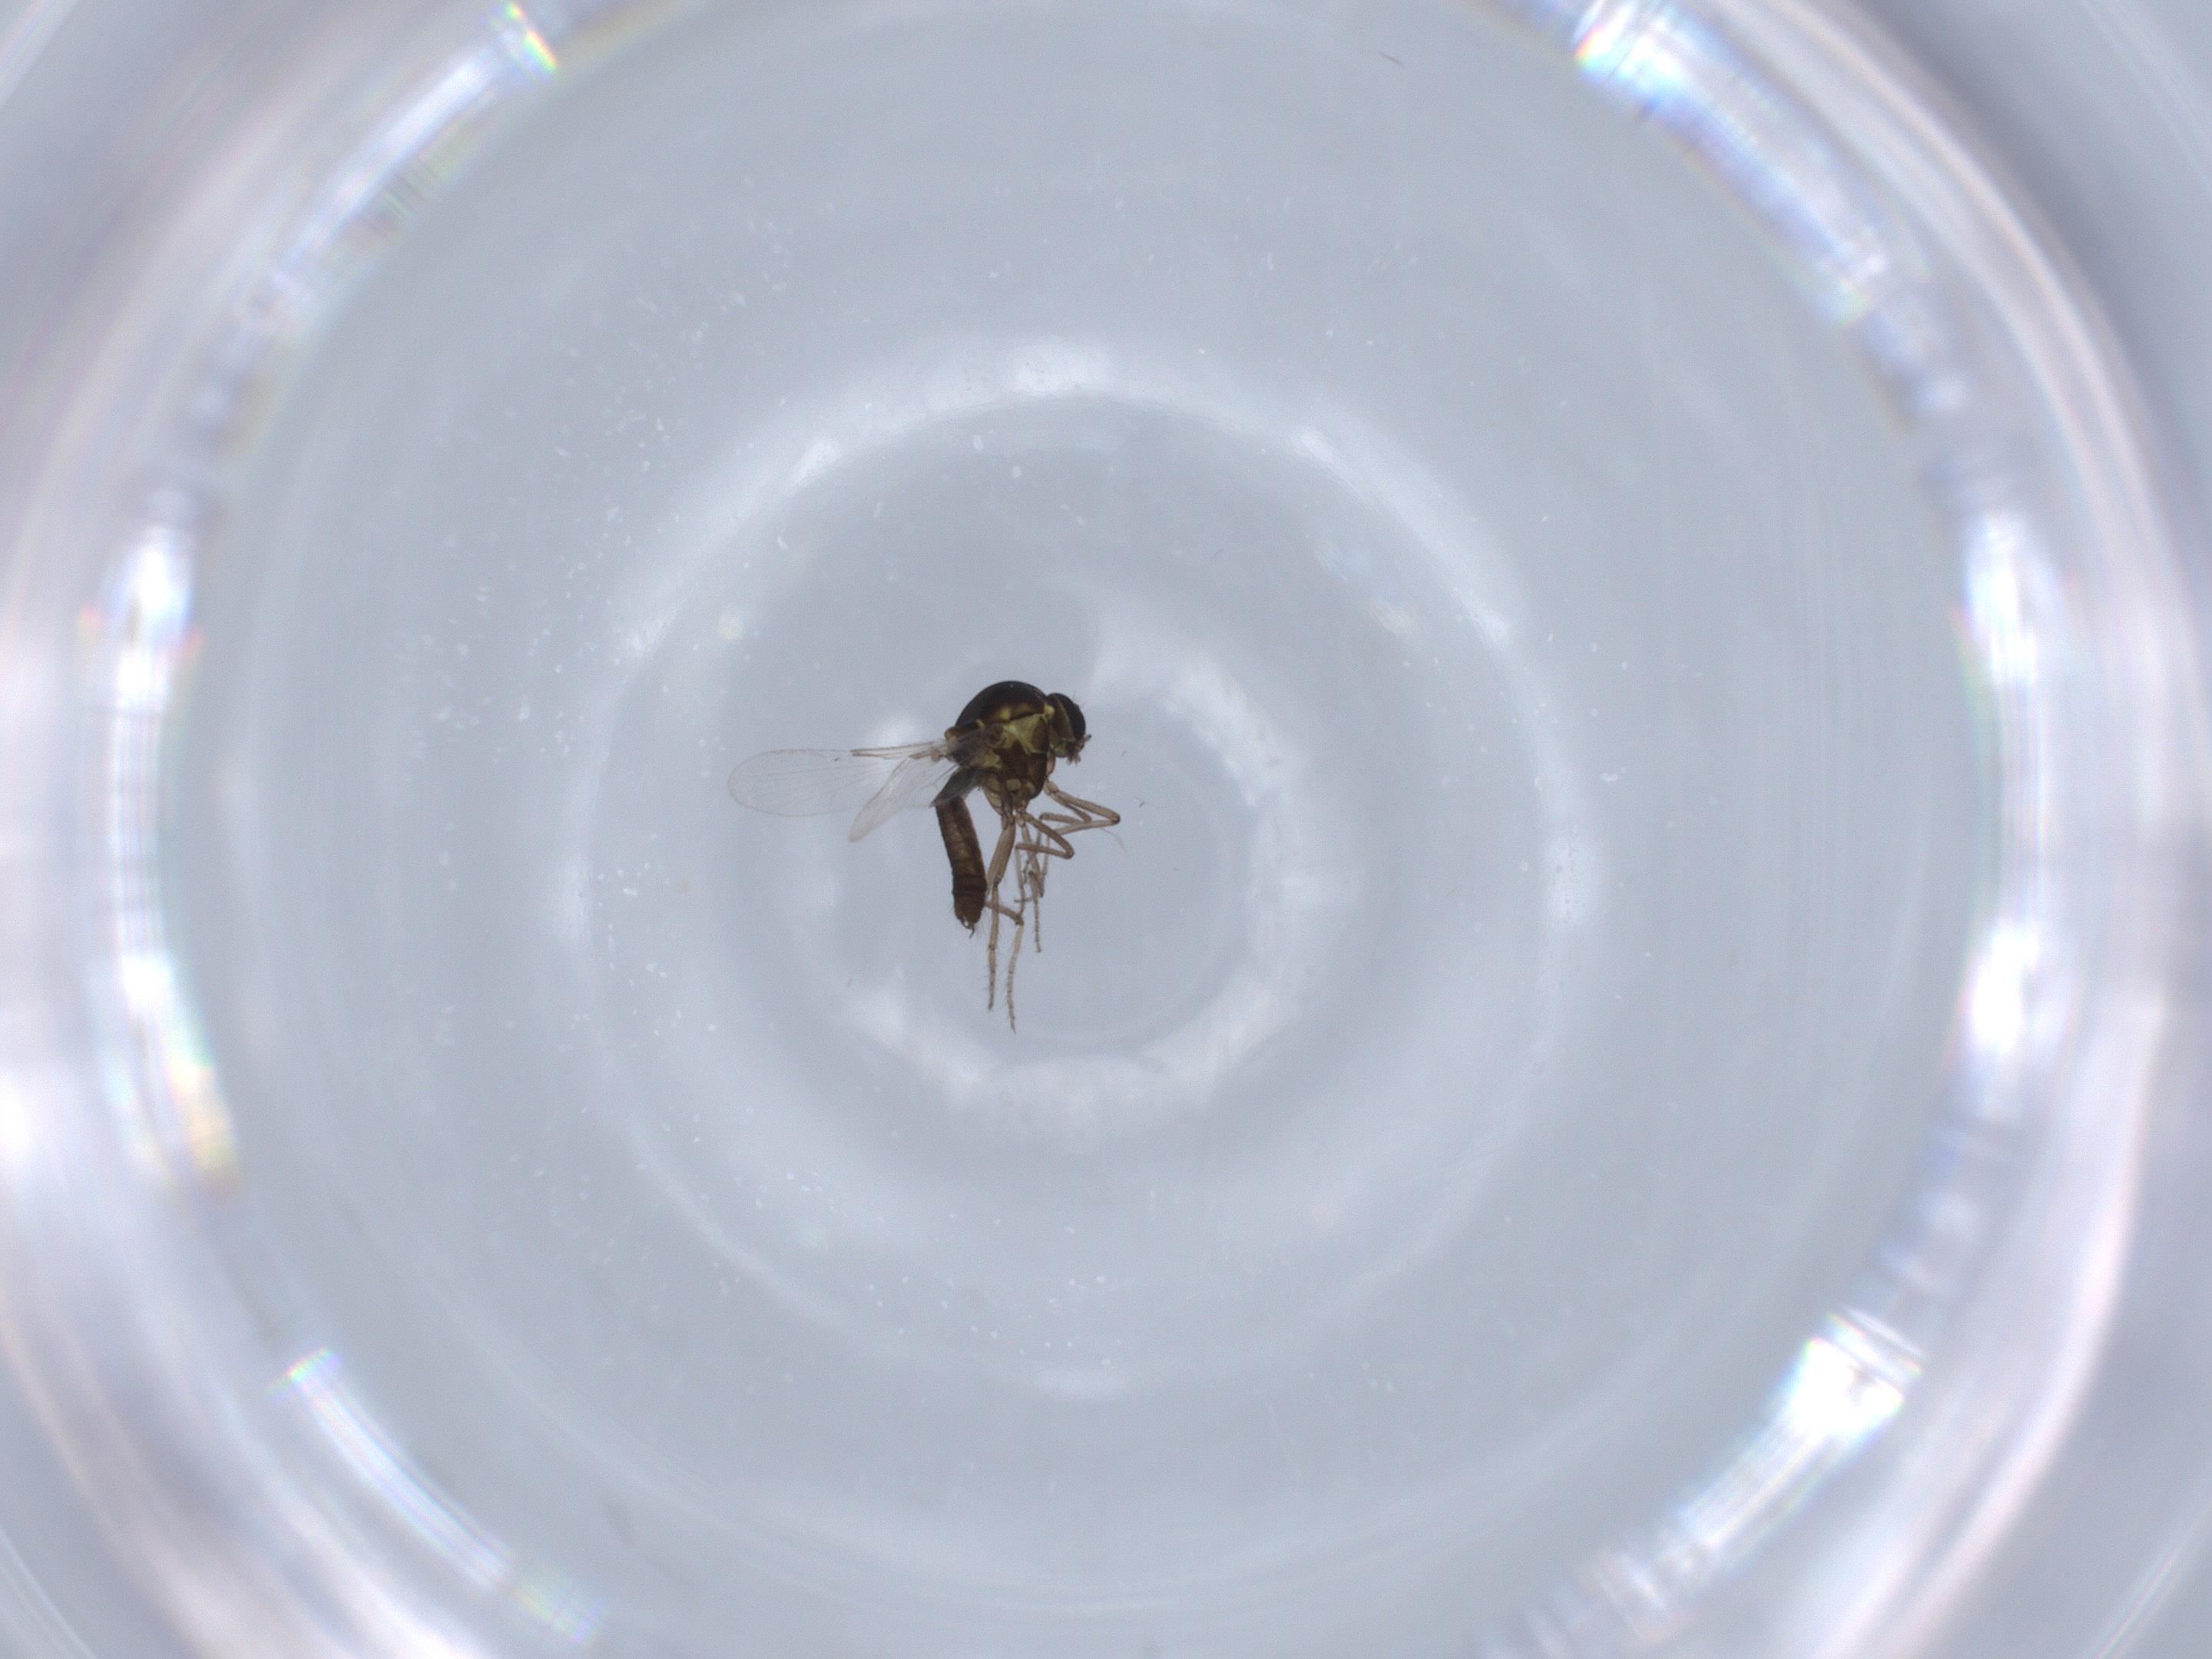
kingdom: Animalia
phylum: Arthropoda
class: Insecta
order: Diptera
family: Ceratopogonidae
